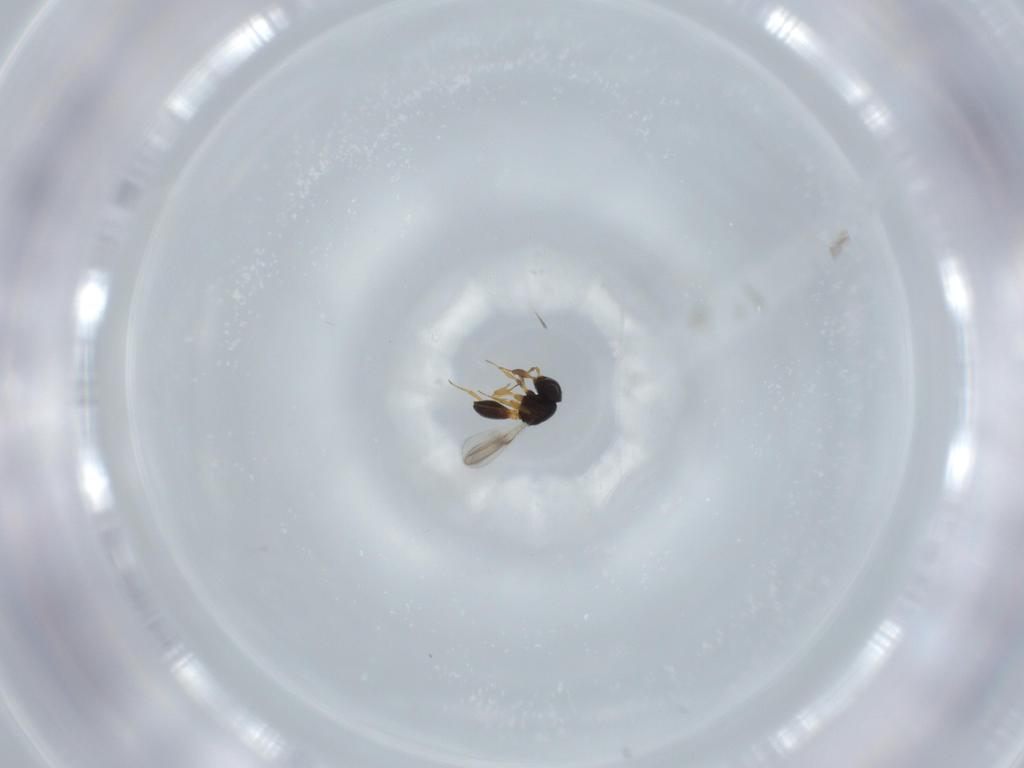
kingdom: Animalia
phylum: Arthropoda
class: Insecta
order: Hymenoptera
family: Scelionidae
